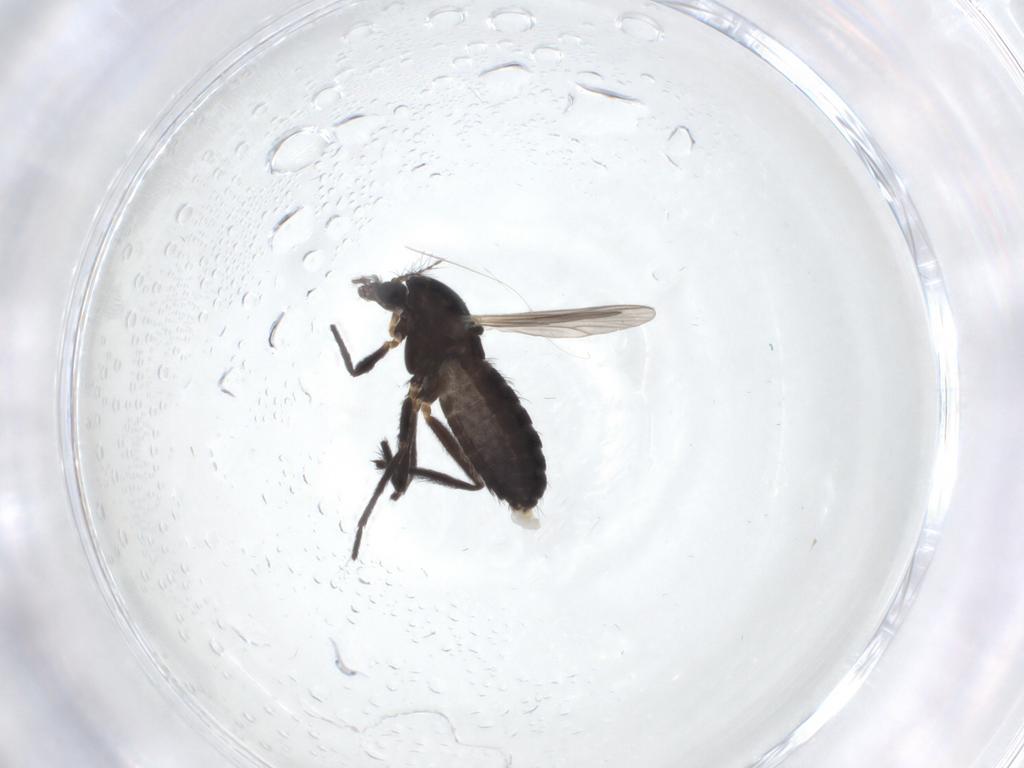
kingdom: Animalia
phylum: Arthropoda
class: Insecta
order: Diptera
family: Chironomidae
